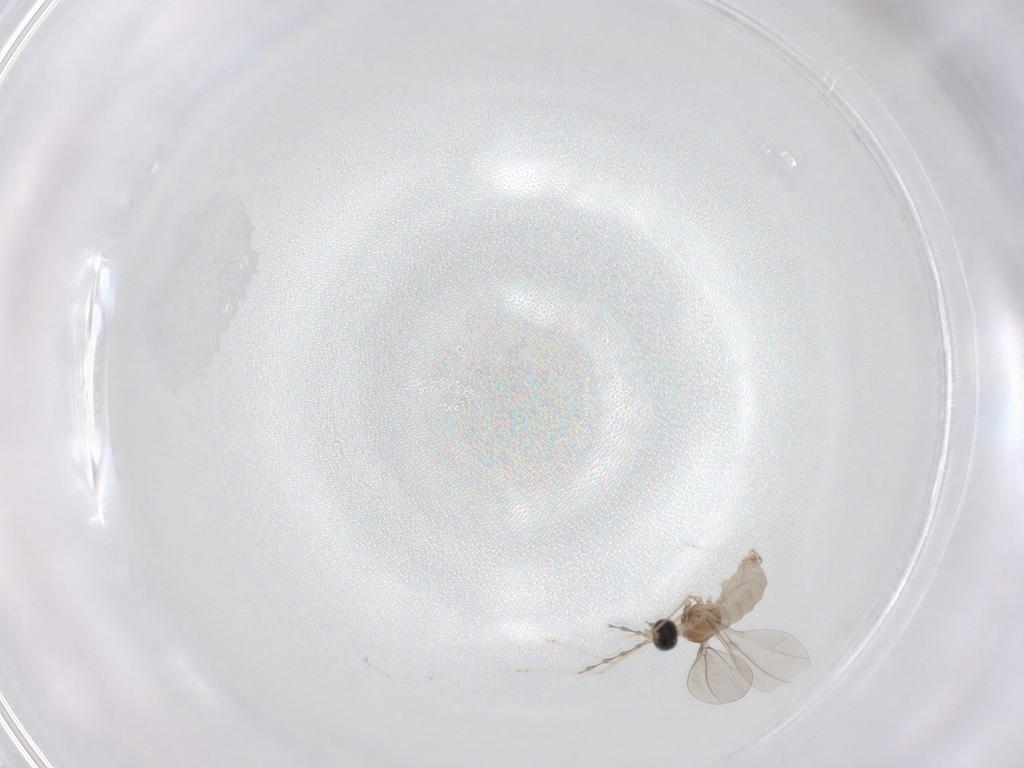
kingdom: Animalia
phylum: Arthropoda
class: Insecta
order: Diptera
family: Cecidomyiidae
